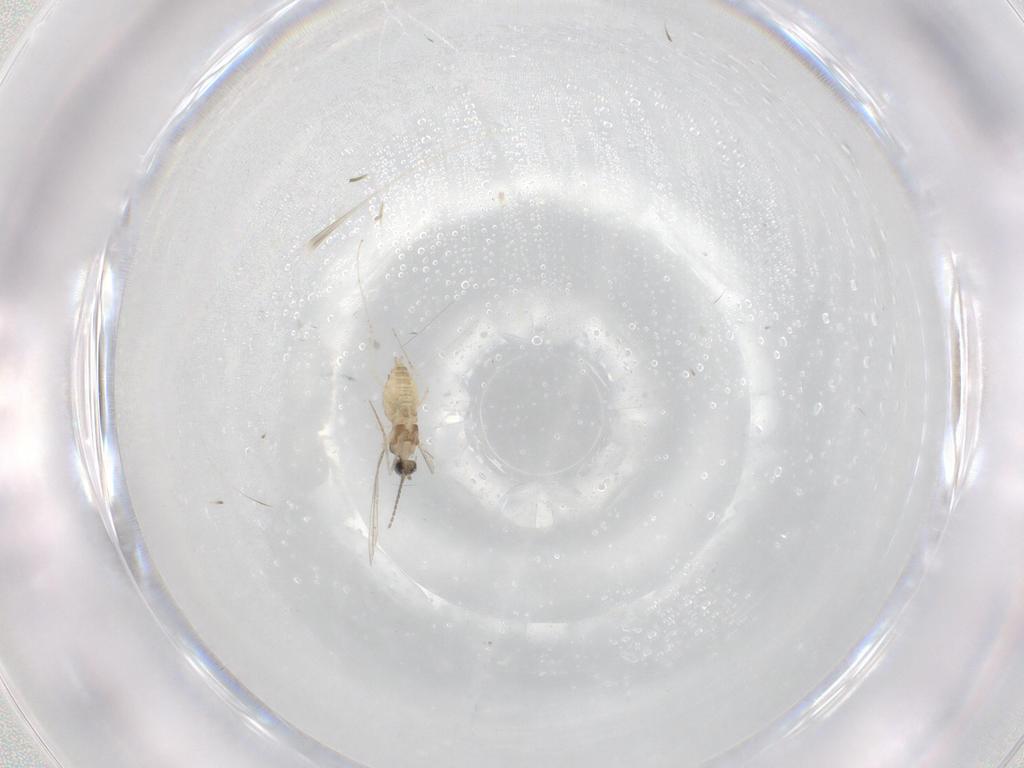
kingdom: Animalia
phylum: Arthropoda
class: Insecta
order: Diptera
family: Cecidomyiidae
